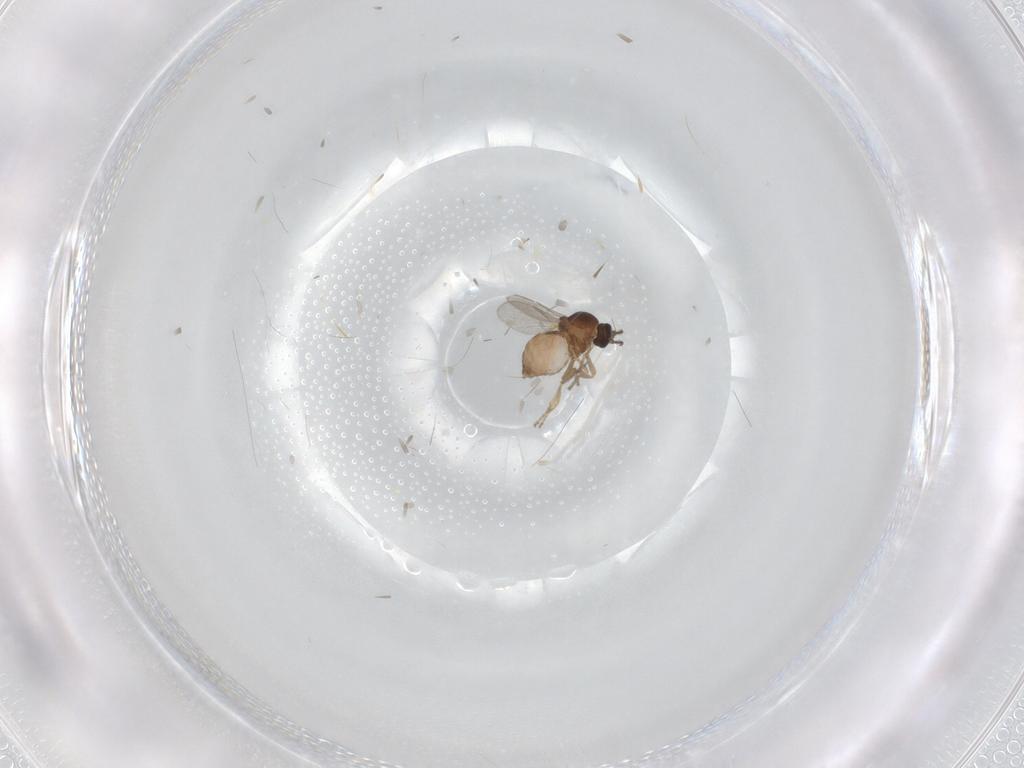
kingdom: Animalia
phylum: Arthropoda
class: Insecta
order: Diptera
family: Ceratopogonidae
